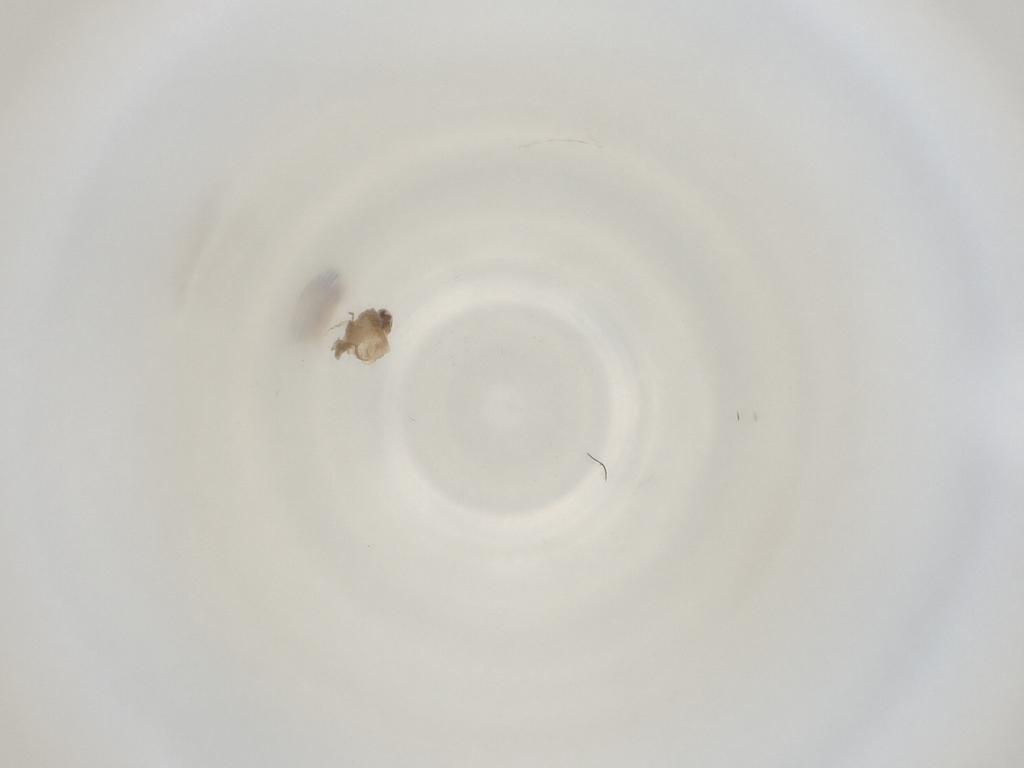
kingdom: Animalia
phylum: Arthropoda
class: Insecta
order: Diptera
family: Cecidomyiidae
